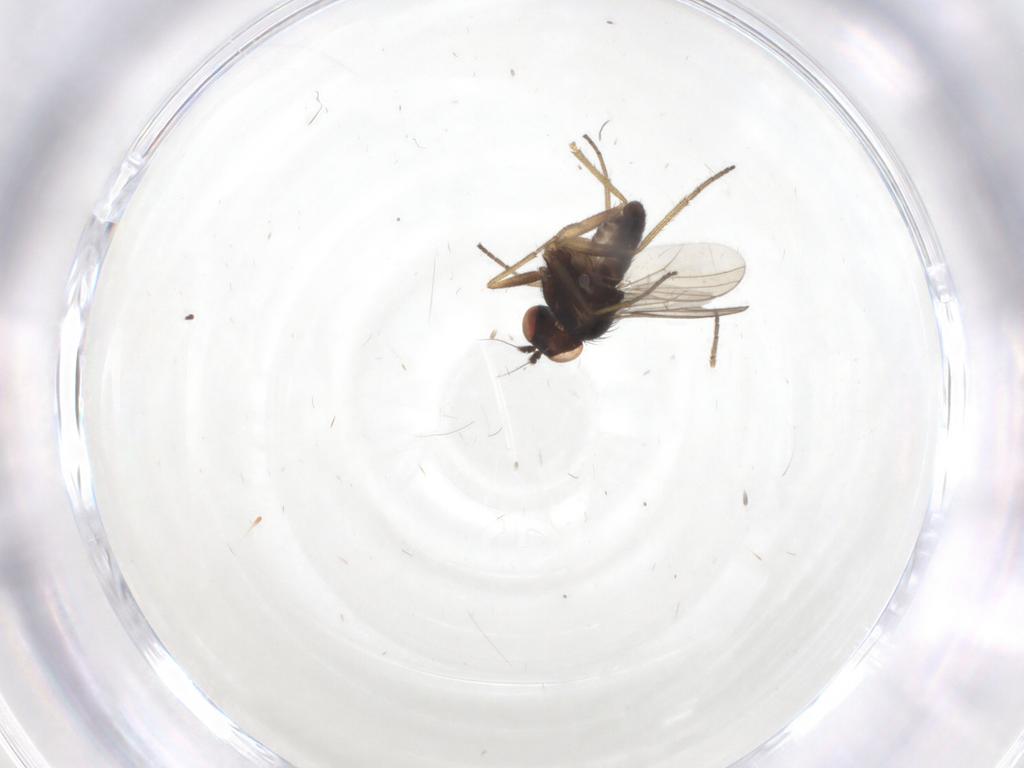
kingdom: Animalia
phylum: Arthropoda
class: Insecta
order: Diptera
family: Dolichopodidae
